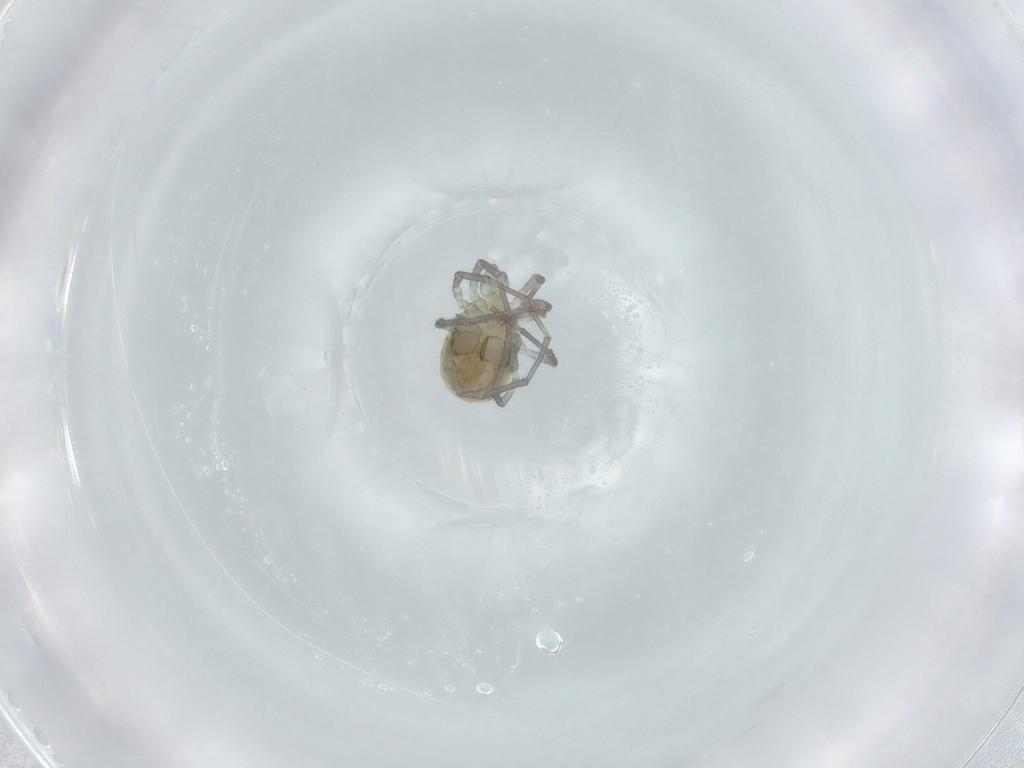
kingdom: Animalia
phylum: Arthropoda
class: Arachnida
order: Trombidiformes
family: Sperchontidae
